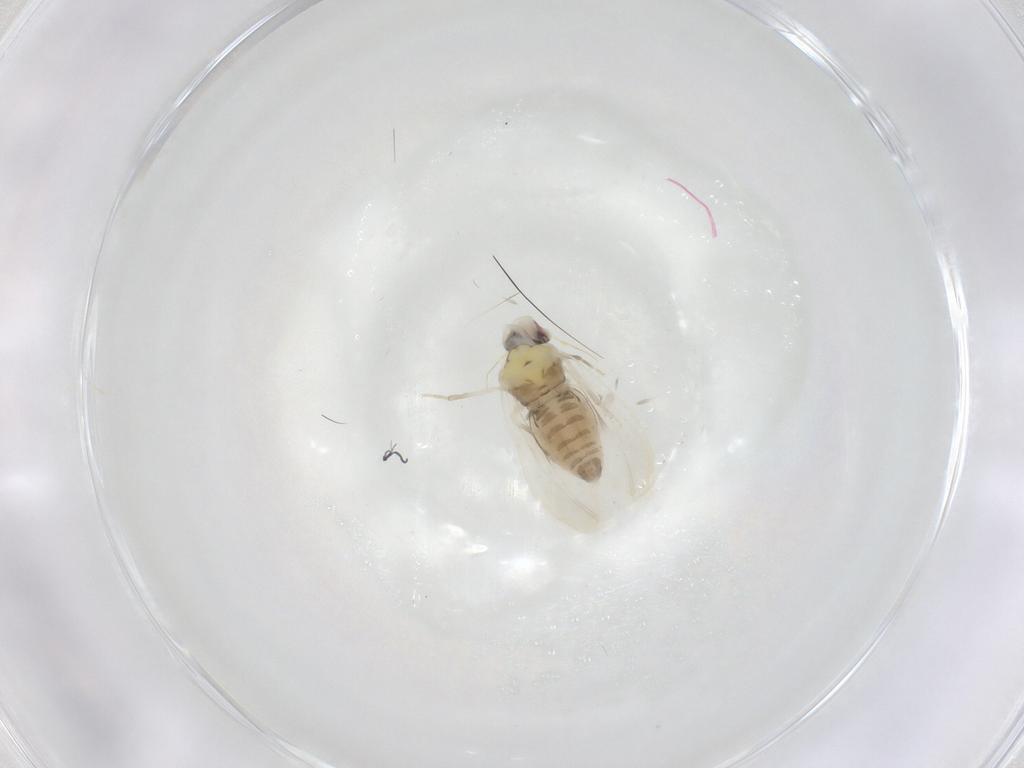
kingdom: Animalia
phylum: Arthropoda
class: Insecta
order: Hemiptera
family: Aleyrodidae
